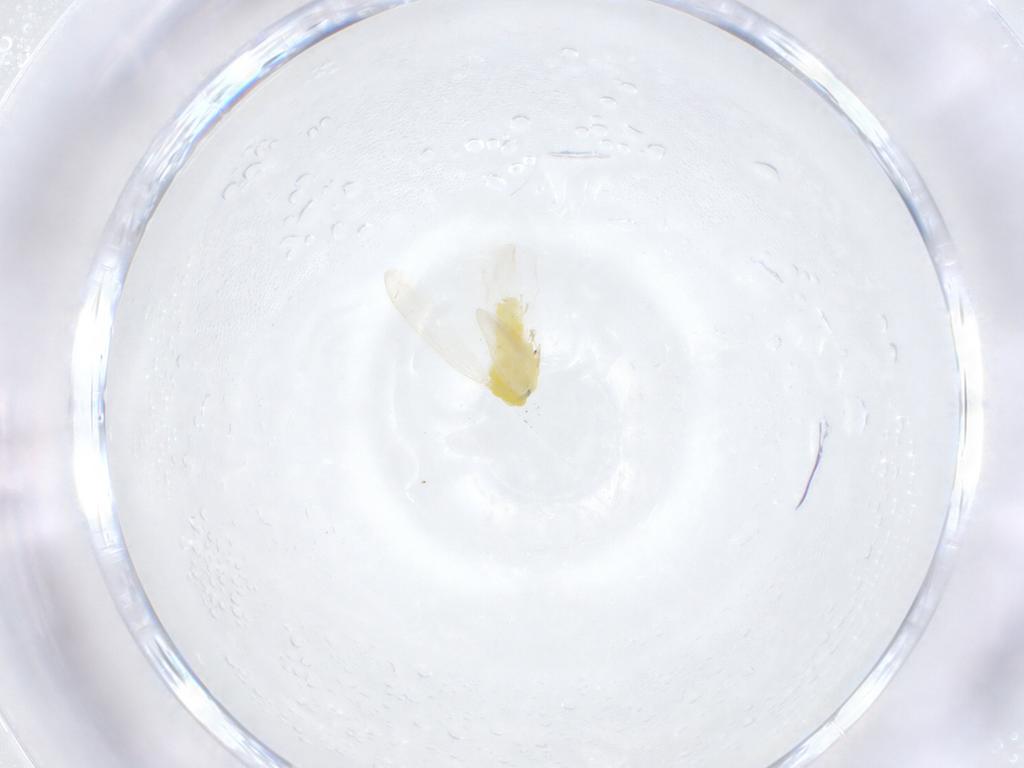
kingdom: Animalia
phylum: Arthropoda
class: Insecta
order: Hemiptera
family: Aleyrodidae
